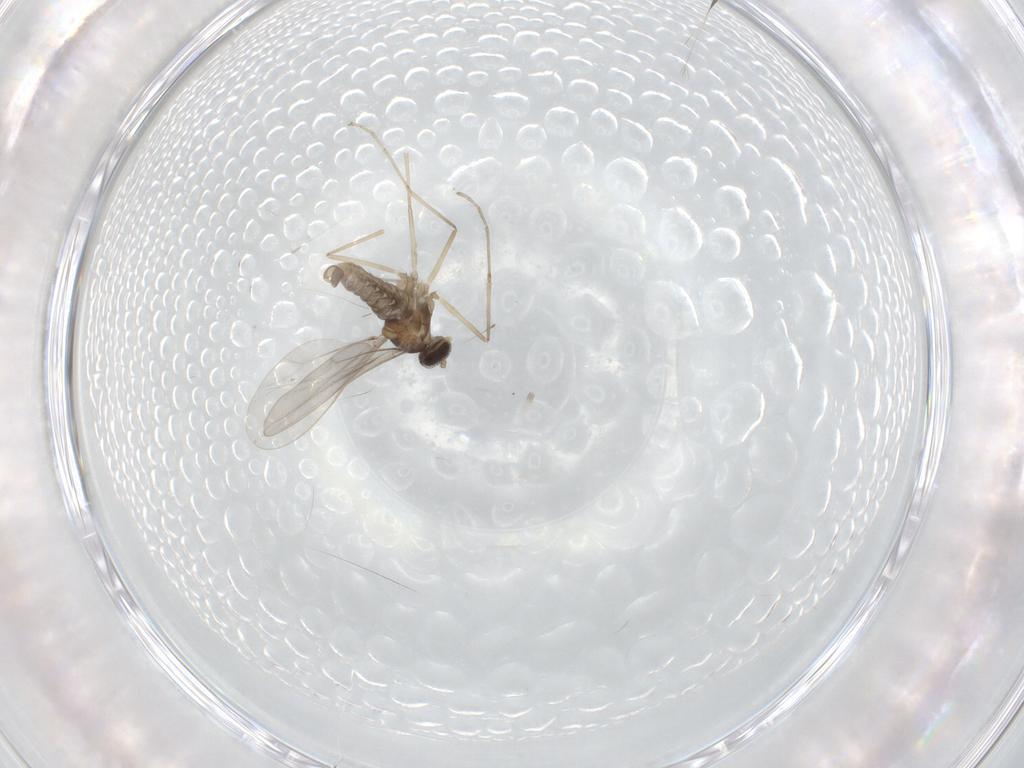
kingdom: Animalia
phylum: Arthropoda
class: Insecta
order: Diptera
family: Cecidomyiidae
